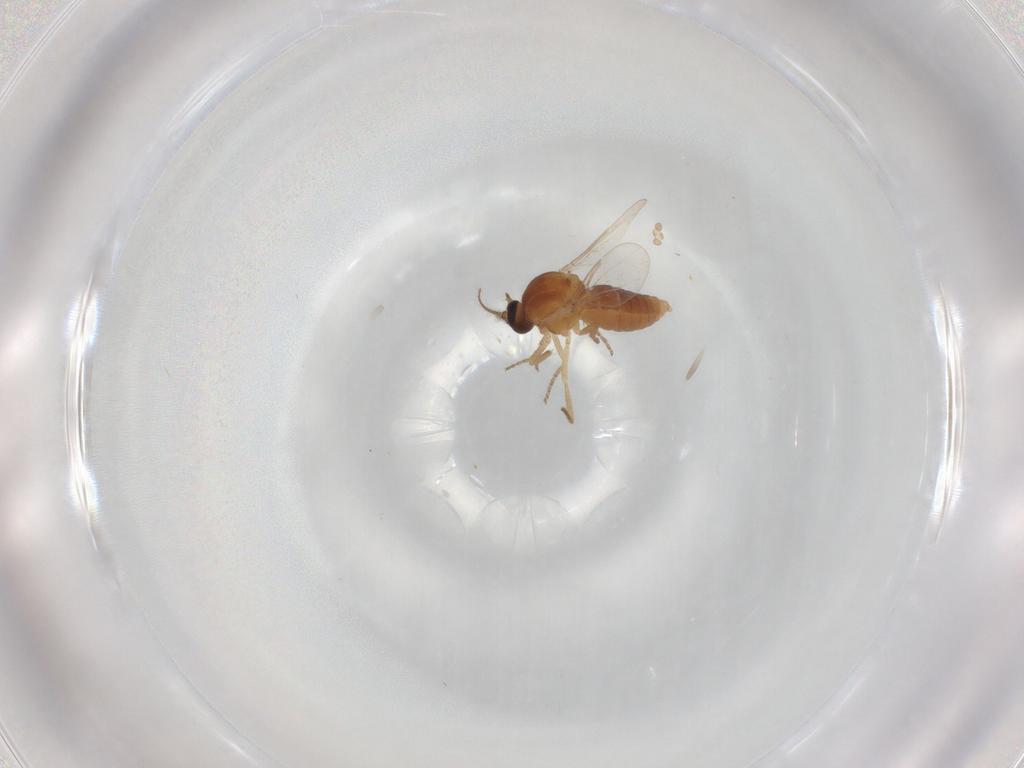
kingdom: Animalia
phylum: Arthropoda
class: Insecta
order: Diptera
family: Ceratopogonidae
